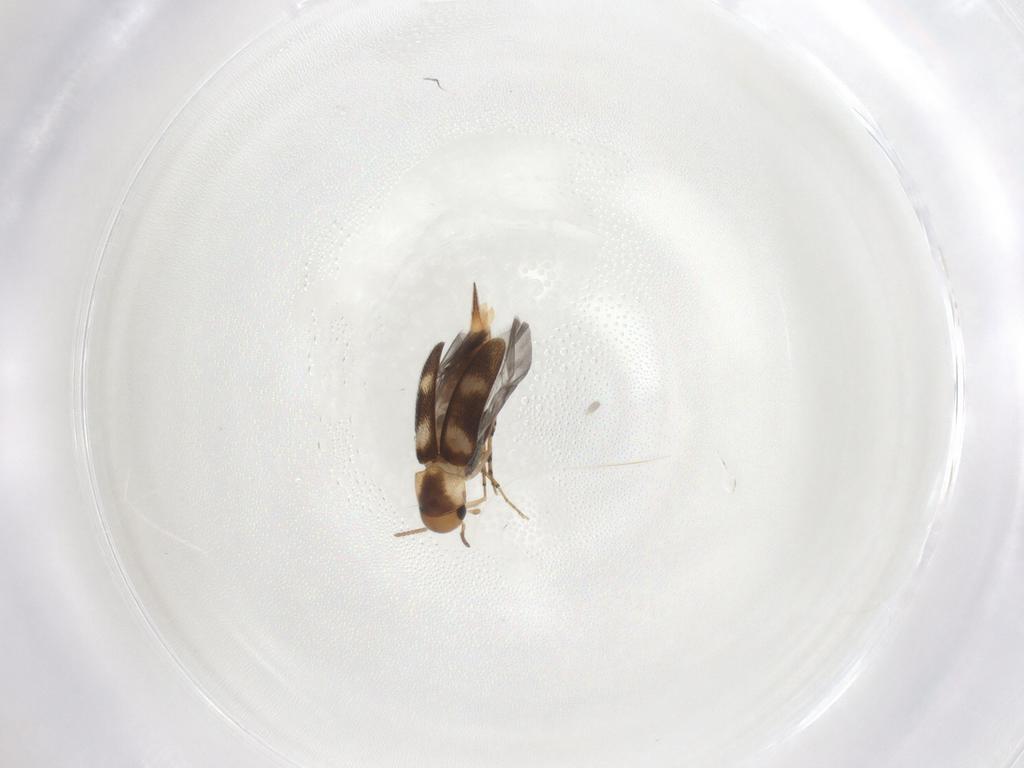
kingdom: Animalia
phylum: Arthropoda
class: Insecta
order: Coleoptera
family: Mordellidae
